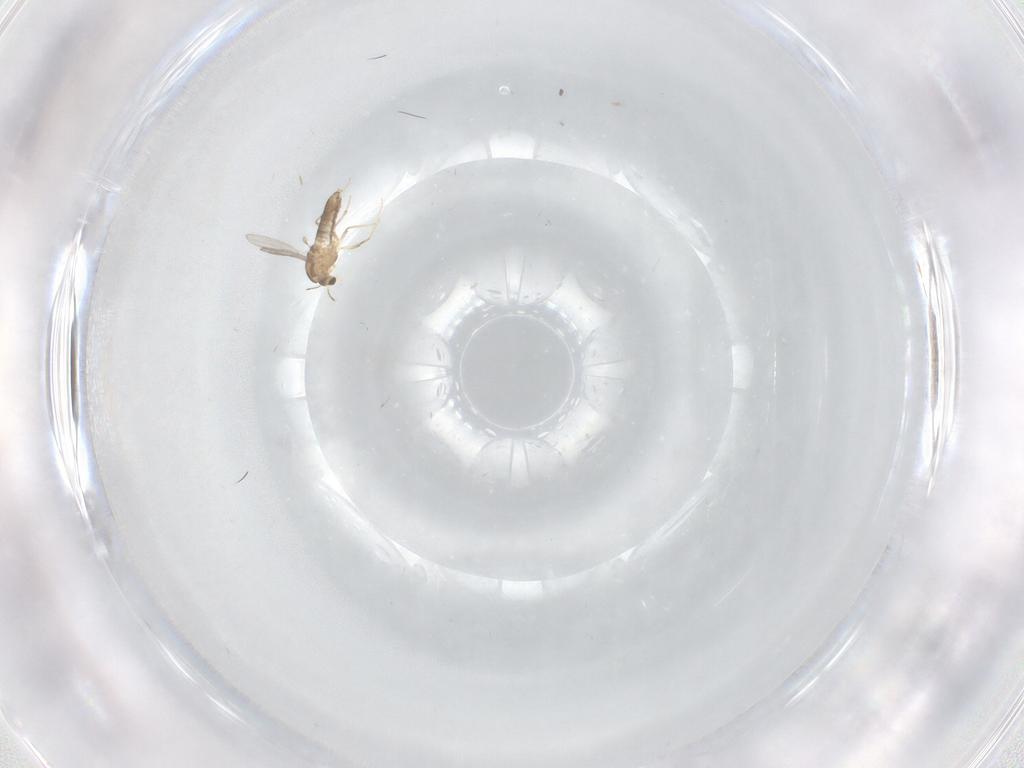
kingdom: Animalia
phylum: Arthropoda
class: Insecta
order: Diptera
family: Chironomidae
